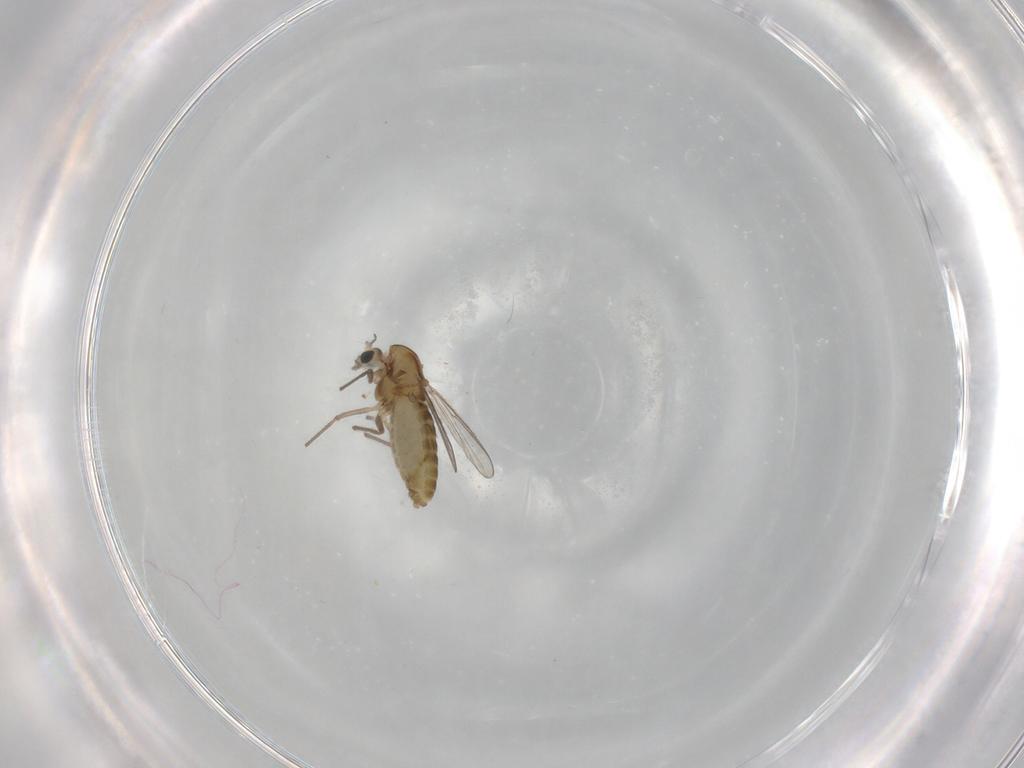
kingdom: Animalia
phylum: Arthropoda
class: Insecta
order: Diptera
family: Chironomidae
